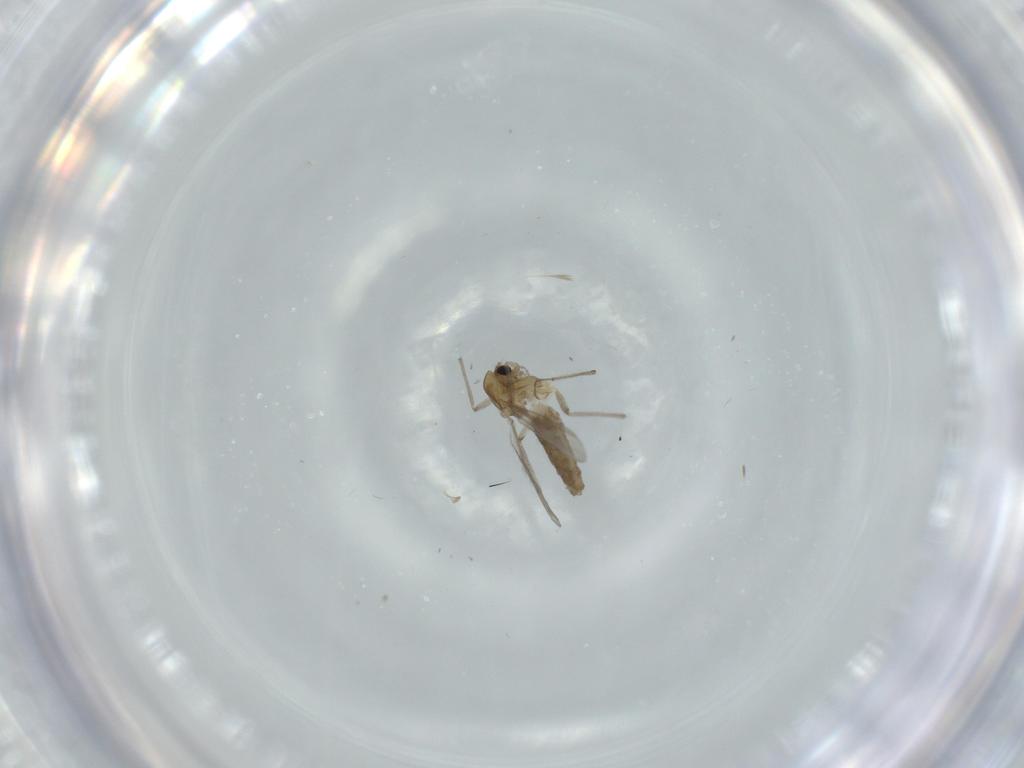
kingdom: Animalia
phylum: Arthropoda
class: Insecta
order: Diptera
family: Chironomidae
